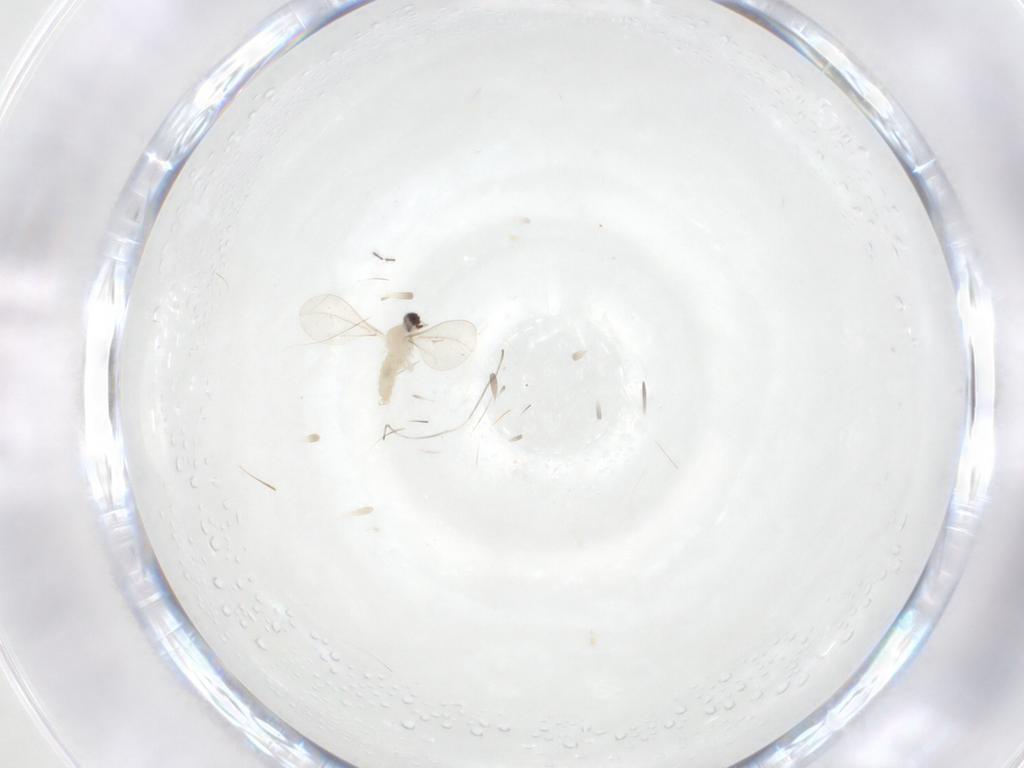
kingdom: Animalia
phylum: Arthropoda
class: Insecta
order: Diptera
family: Cecidomyiidae
